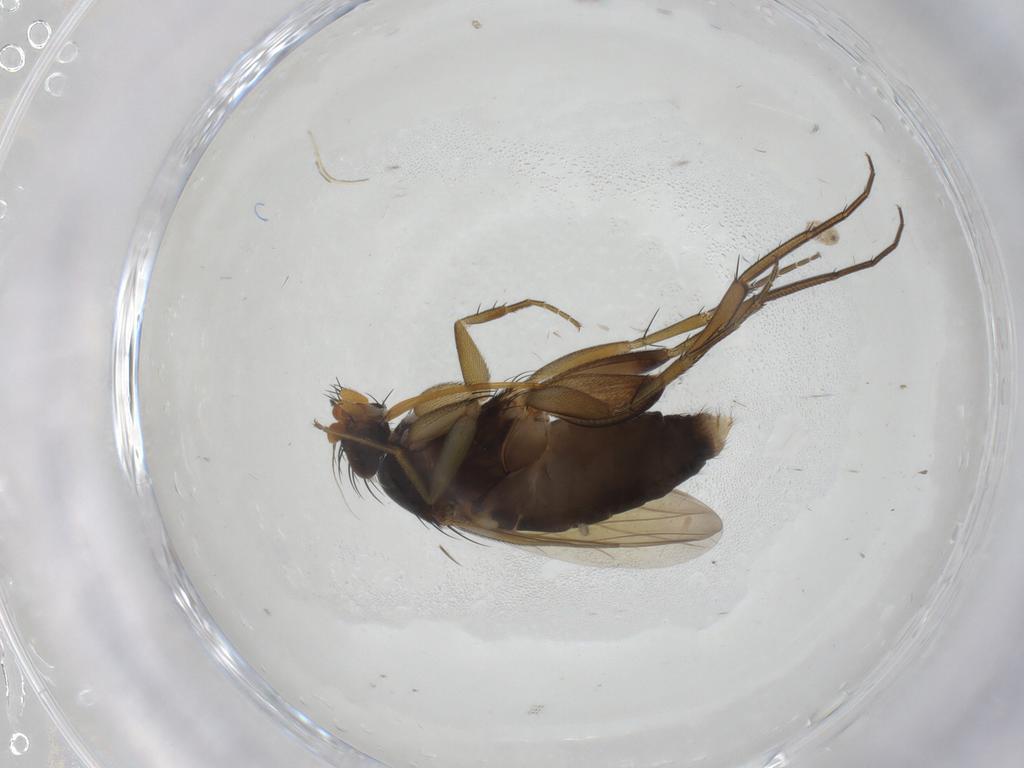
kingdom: Animalia
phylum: Arthropoda
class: Insecta
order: Diptera
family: Phoridae
